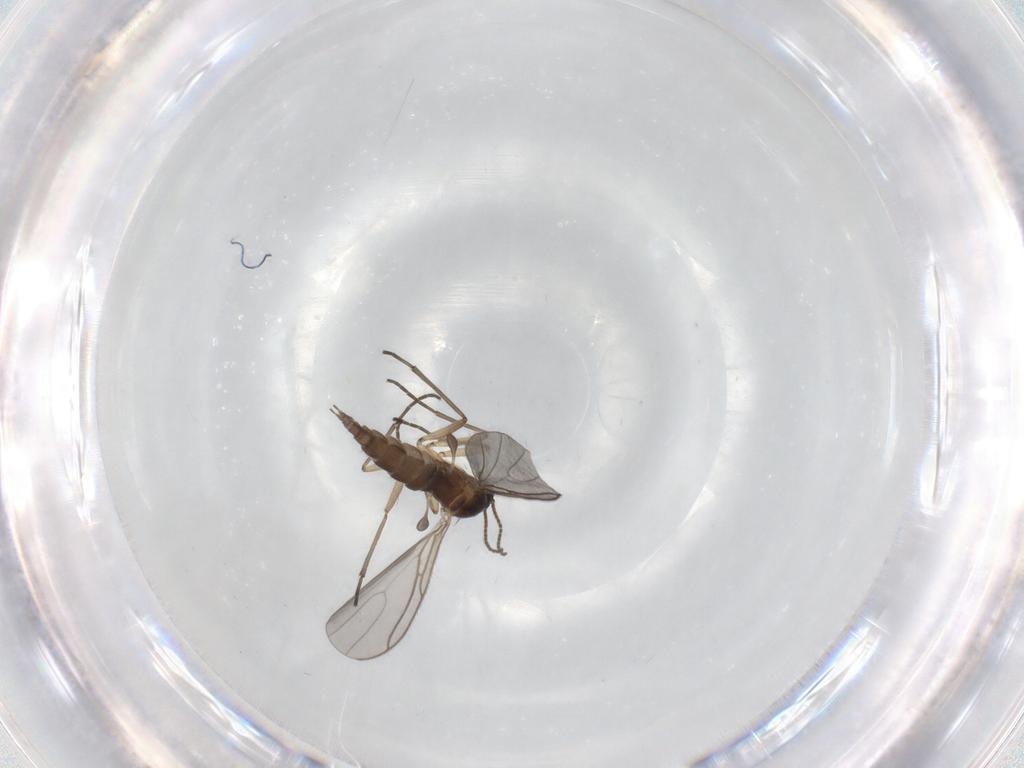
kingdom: Animalia
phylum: Arthropoda
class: Insecta
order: Diptera
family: Sciaridae
